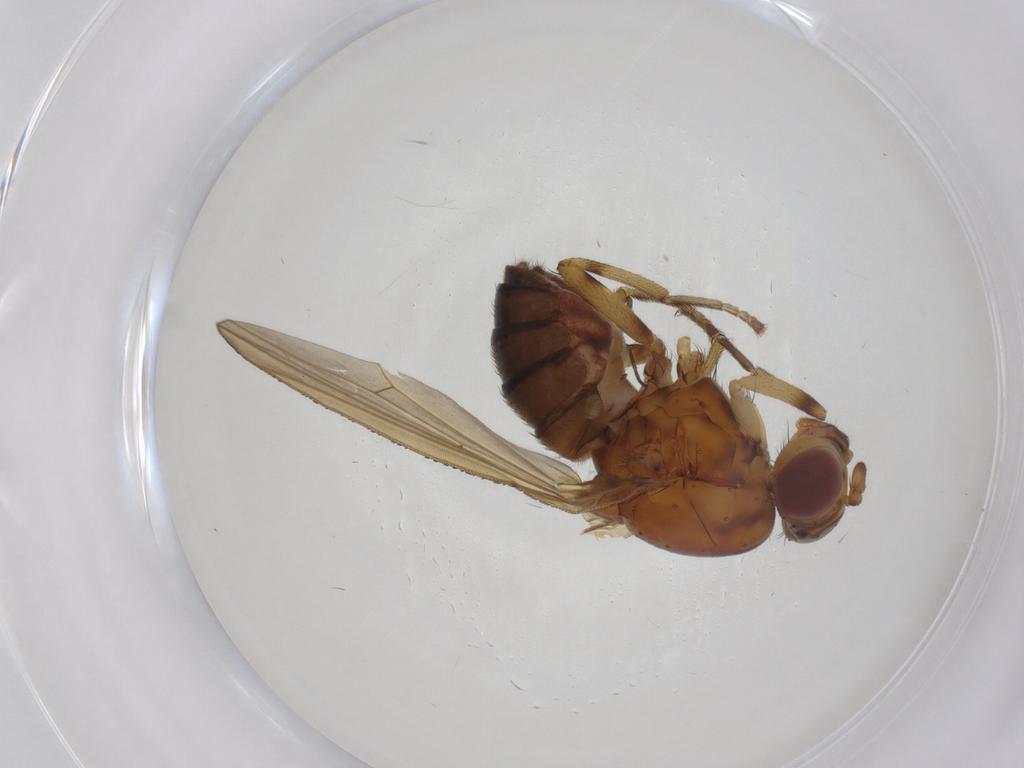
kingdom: Animalia
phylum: Arthropoda
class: Insecta
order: Diptera
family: Phoridae
